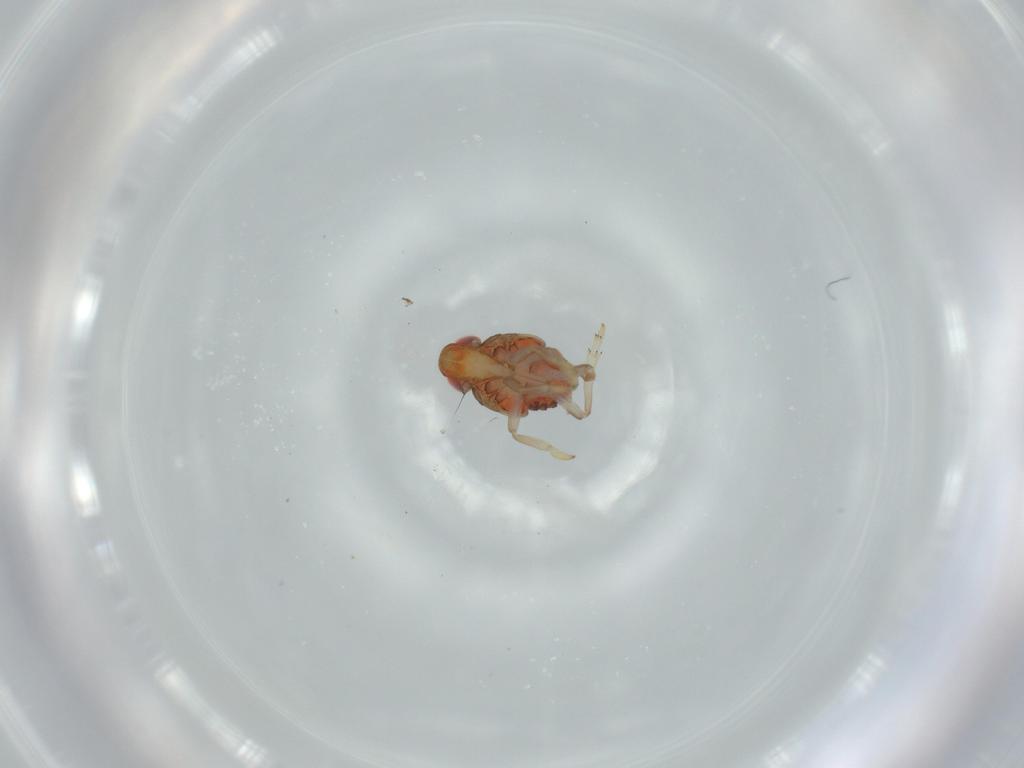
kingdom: Animalia
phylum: Arthropoda
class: Insecta
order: Hemiptera
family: Issidae
